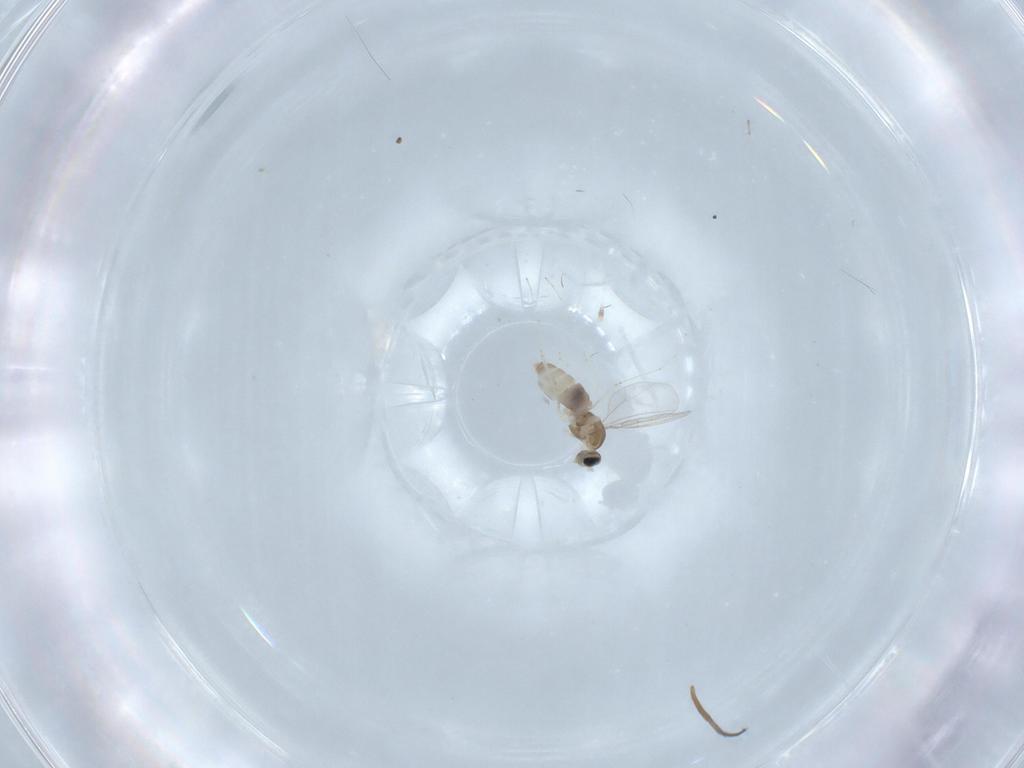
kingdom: Animalia
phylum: Arthropoda
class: Insecta
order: Diptera
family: Cecidomyiidae
